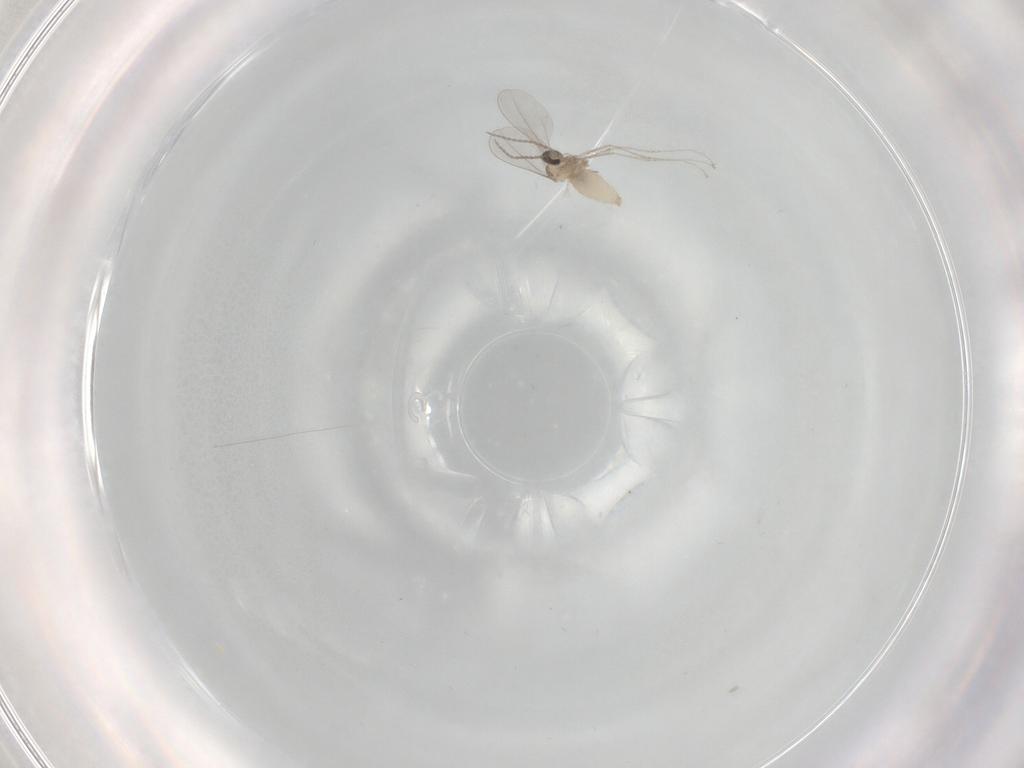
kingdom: Animalia
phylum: Arthropoda
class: Insecta
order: Diptera
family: Cecidomyiidae
